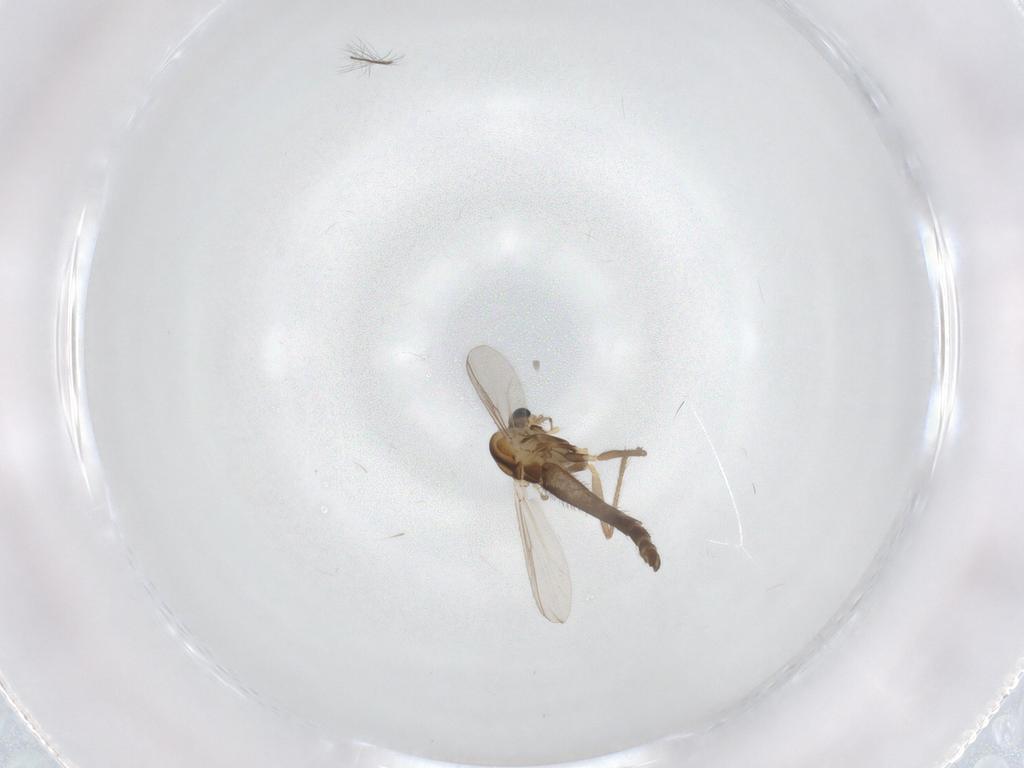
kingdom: Animalia
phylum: Arthropoda
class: Insecta
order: Diptera
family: Chironomidae
